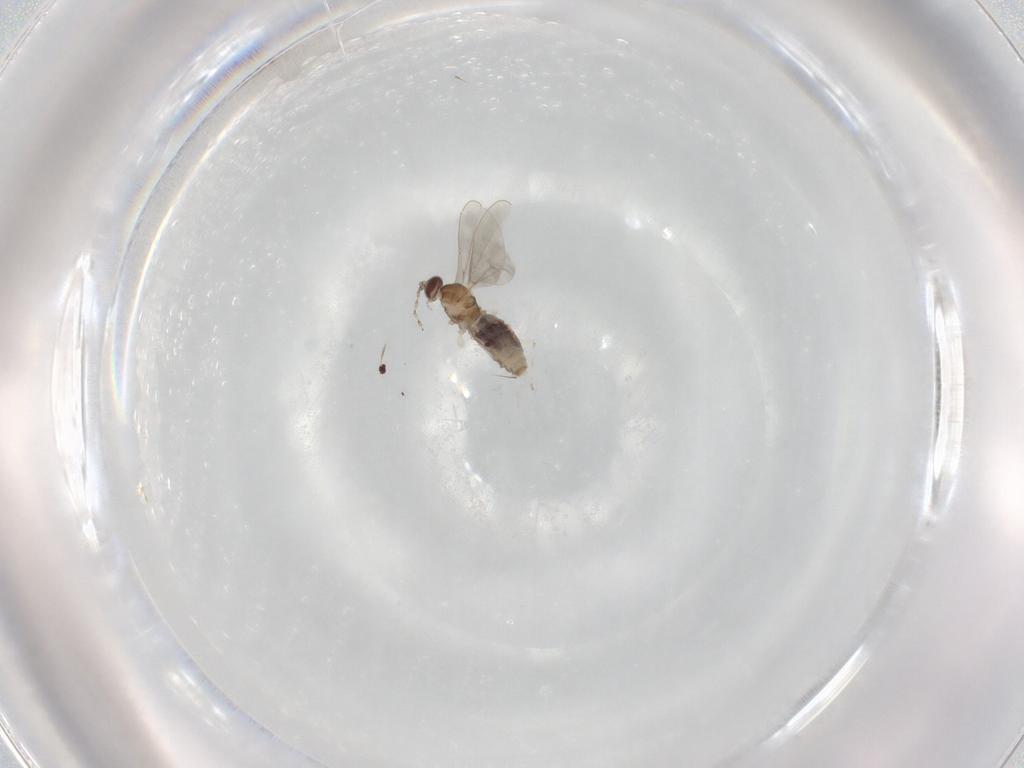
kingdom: Animalia
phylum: Arthropoda
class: Insecta
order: Diptera
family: Cecidomyiidae
